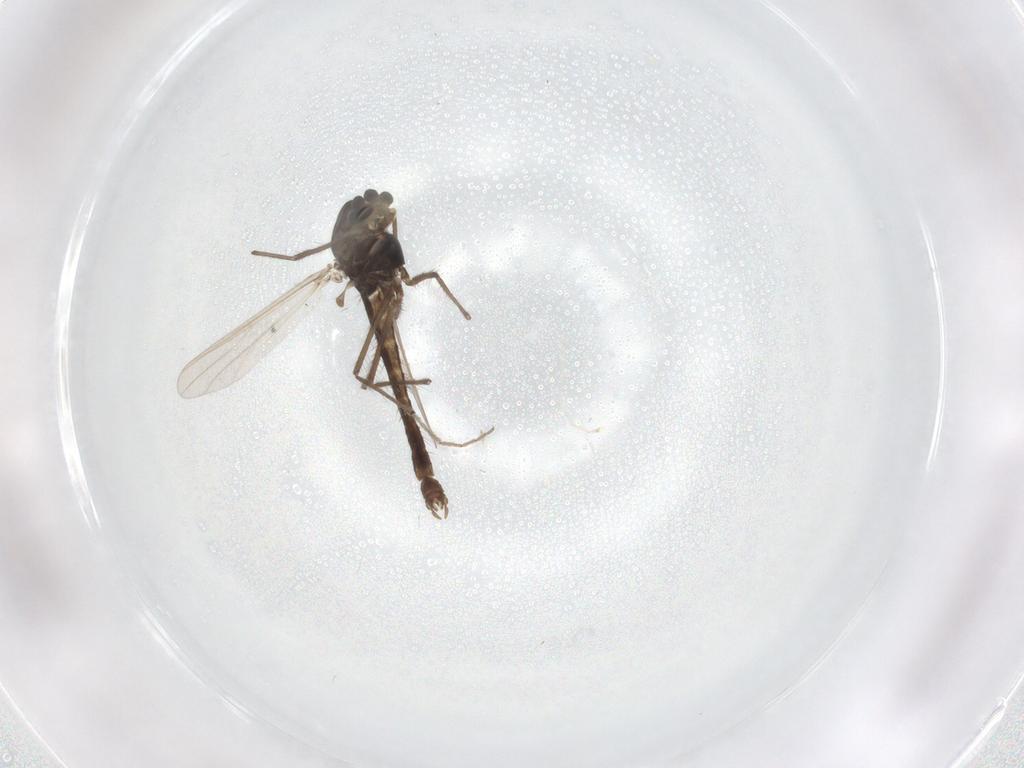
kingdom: Animalia
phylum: Arthropoda
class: Insecta
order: Diptera
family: Chironomidae
